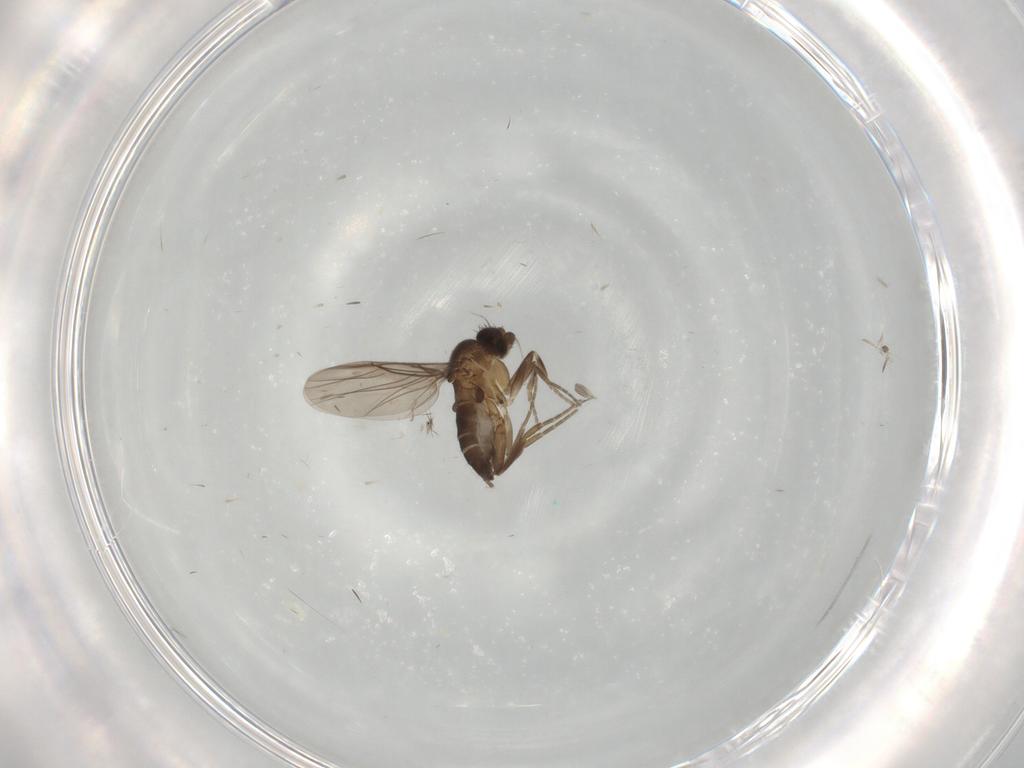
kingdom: Animalia
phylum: Arthropoda
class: Insecta
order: Diptera
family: Phoridae
